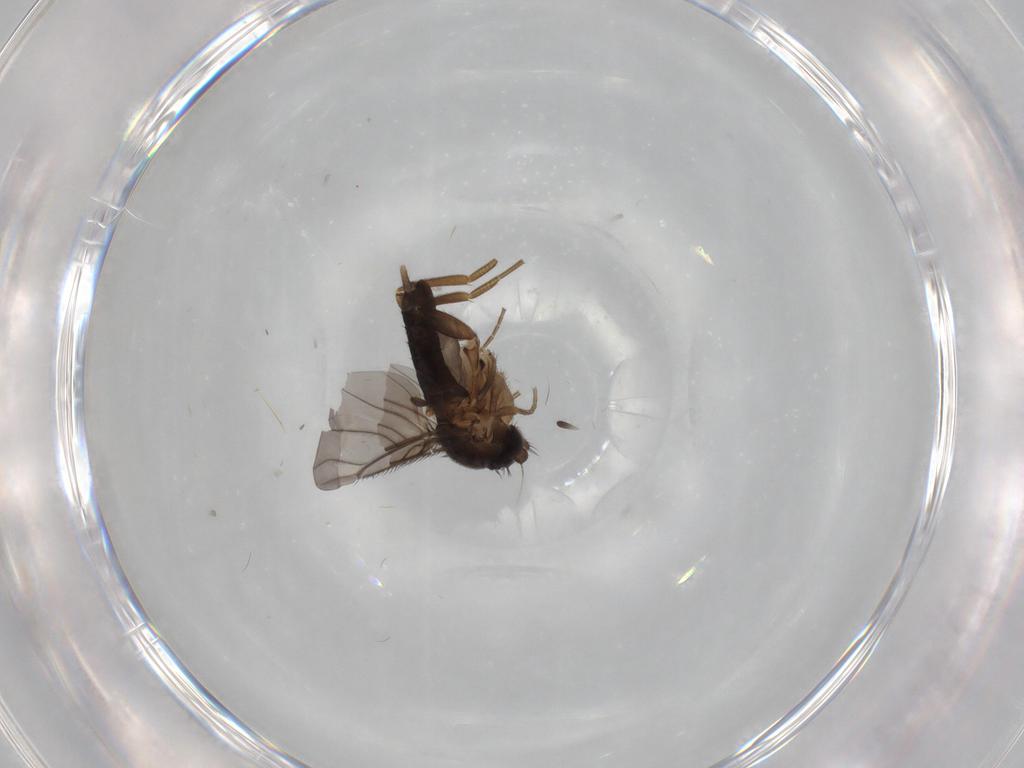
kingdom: Animalia
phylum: Arthropoda
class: Insecta
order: Diptera
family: Phoridae
